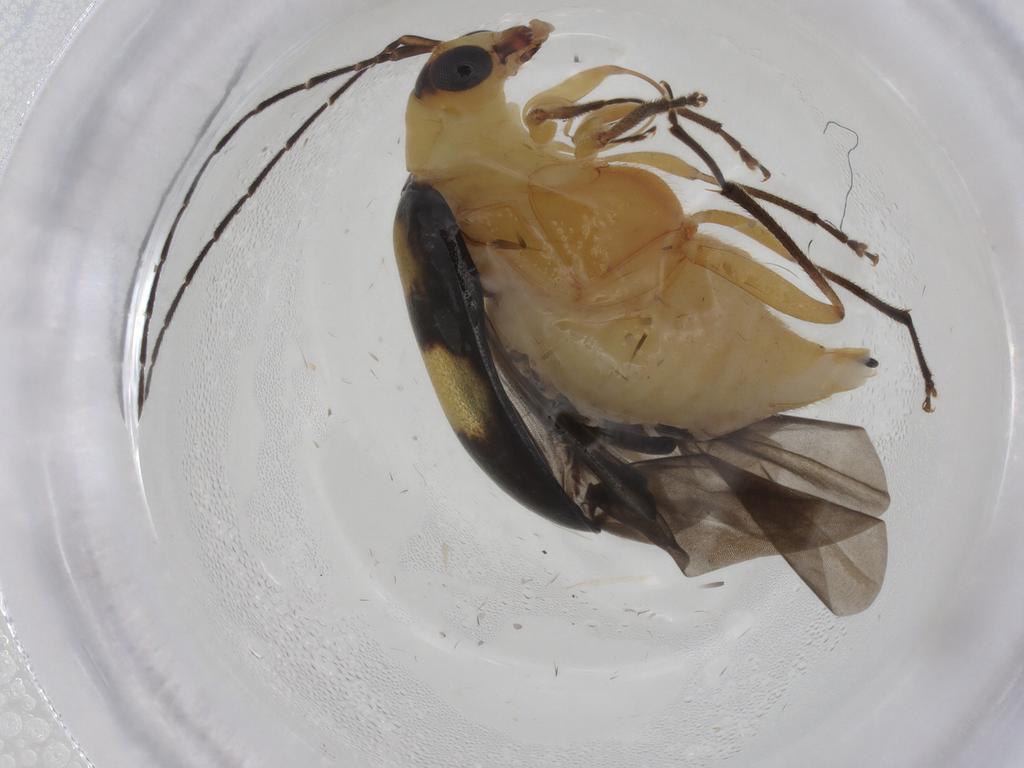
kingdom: Animalia
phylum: Arthropoda
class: Insecta
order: Coleoptera
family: Chrysomelidae
